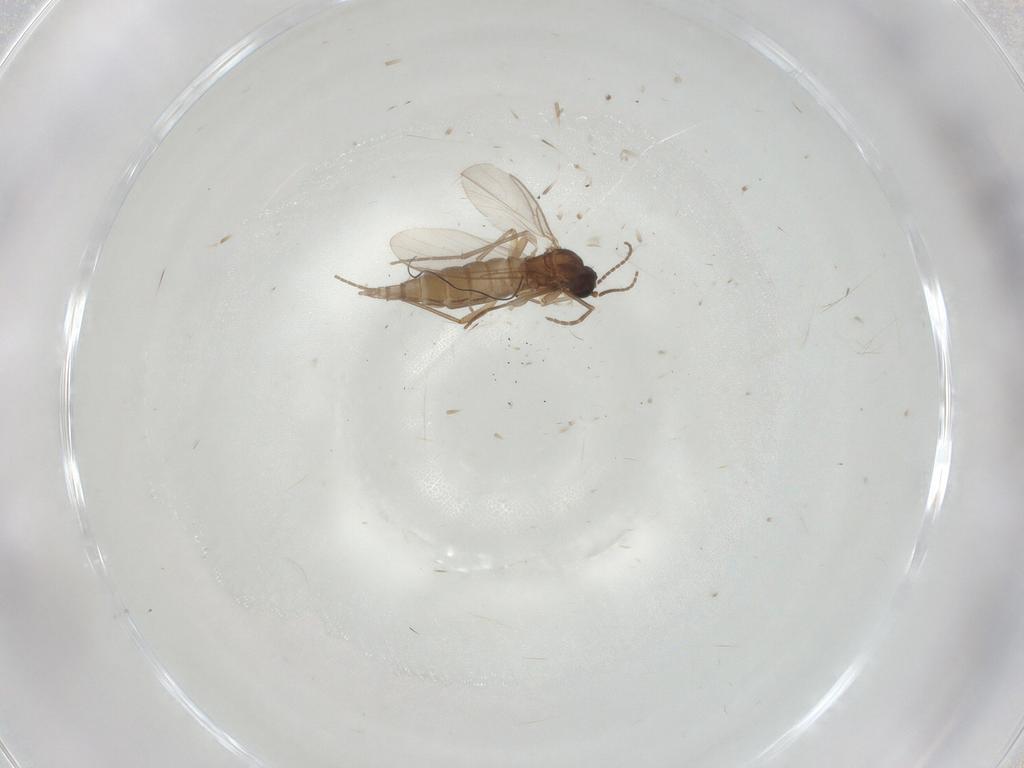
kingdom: Animalia
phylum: Arthropoda
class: Insecta
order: Diptera
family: Sciaridae
